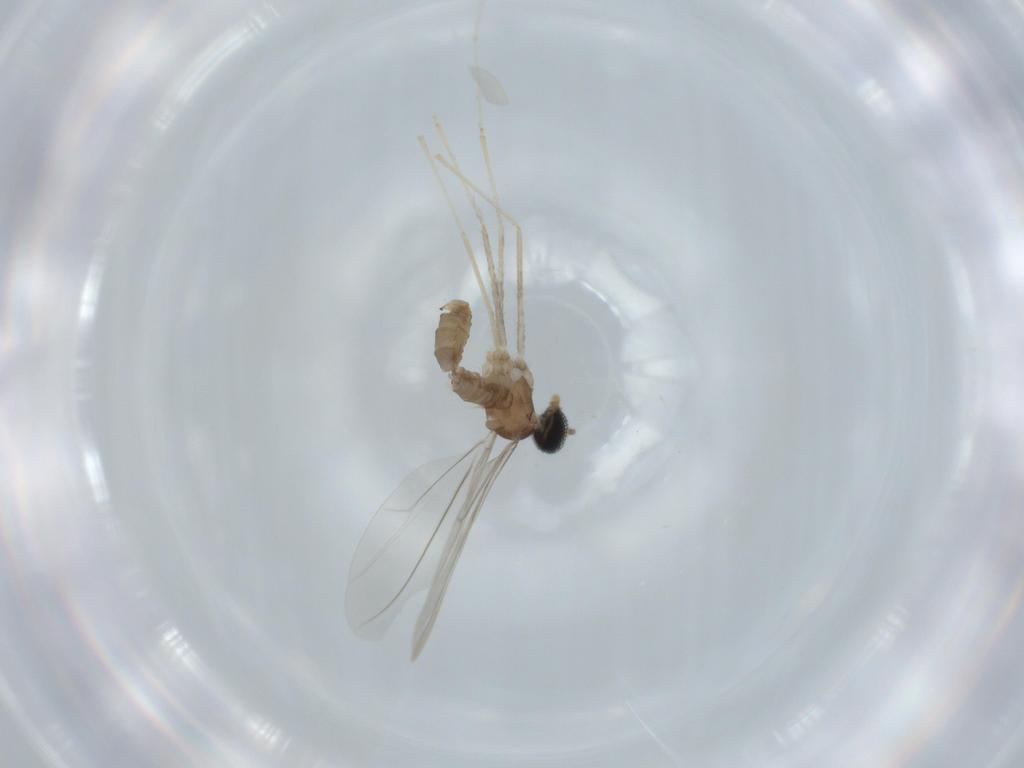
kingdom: Animalia
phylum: Arthropoda
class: Insecta
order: Diptera
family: Cecidomyiidae
